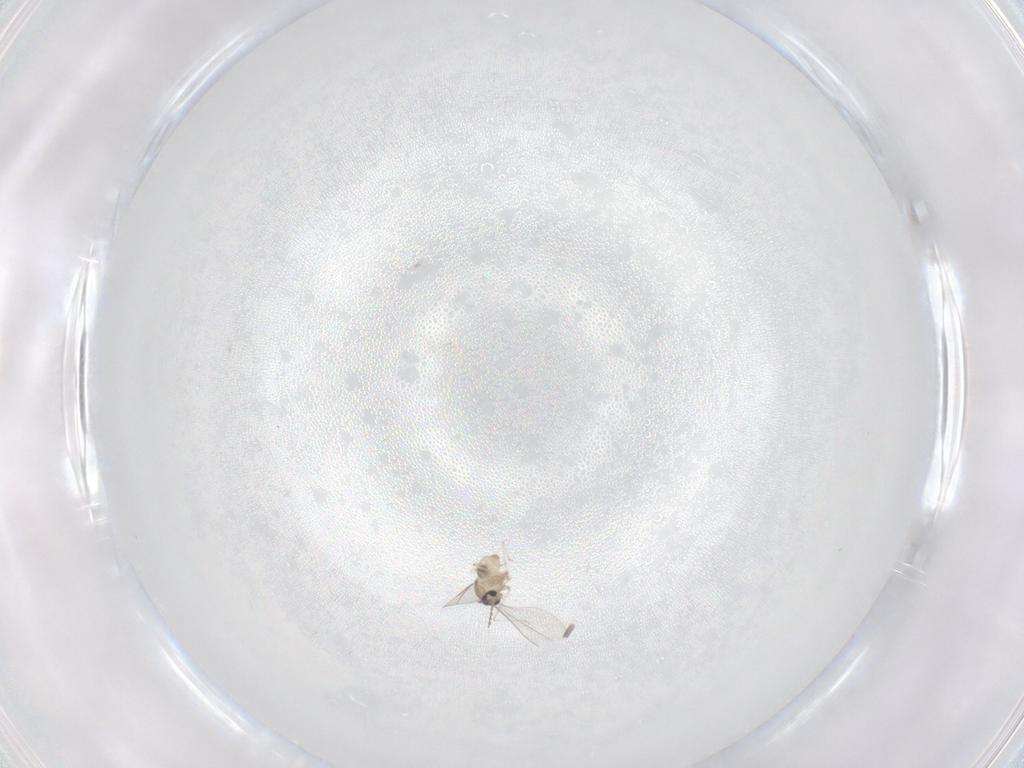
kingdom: Animalia
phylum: Arthropoda
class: Insecta
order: Diptera
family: Cecidomyiidae
